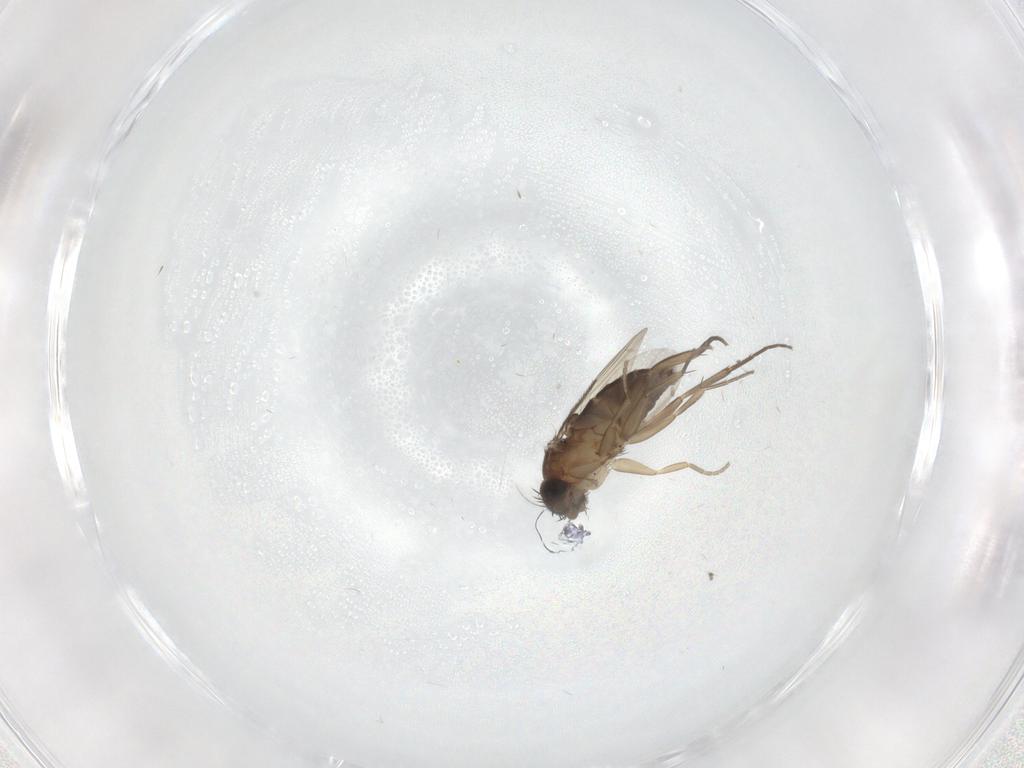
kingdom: Animalia
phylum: Arthropoda
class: Insecta
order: Diptera
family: Phoridae
